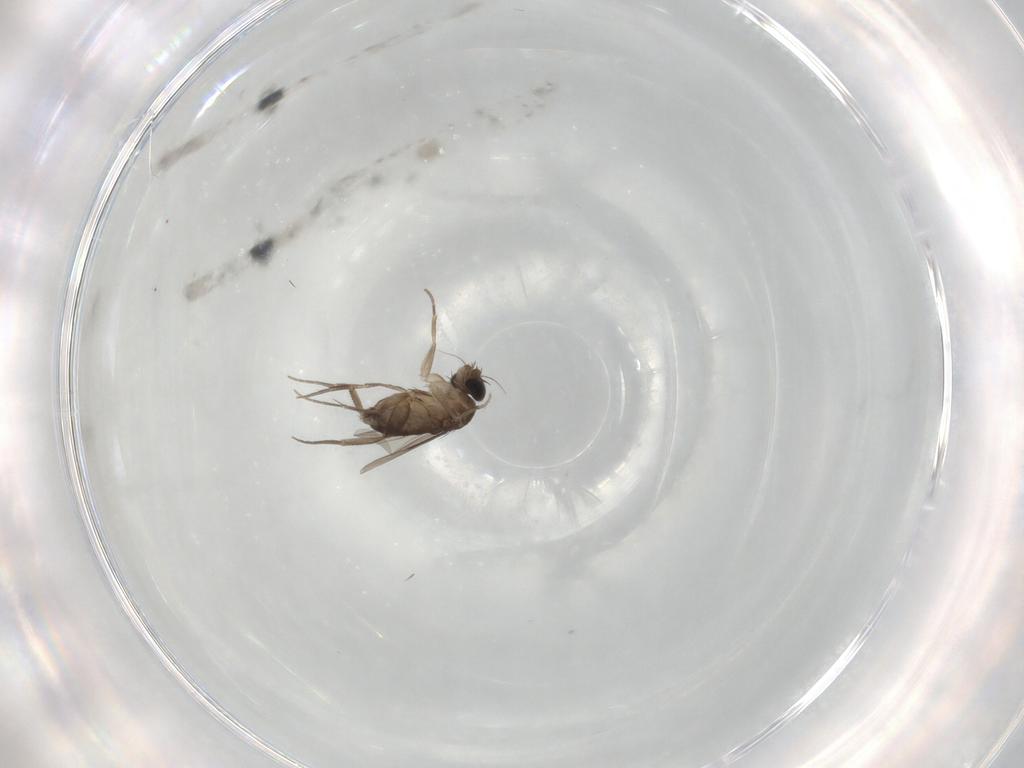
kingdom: Animalia
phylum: Arthropoda
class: Insecta
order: Diptera
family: Phoridae
